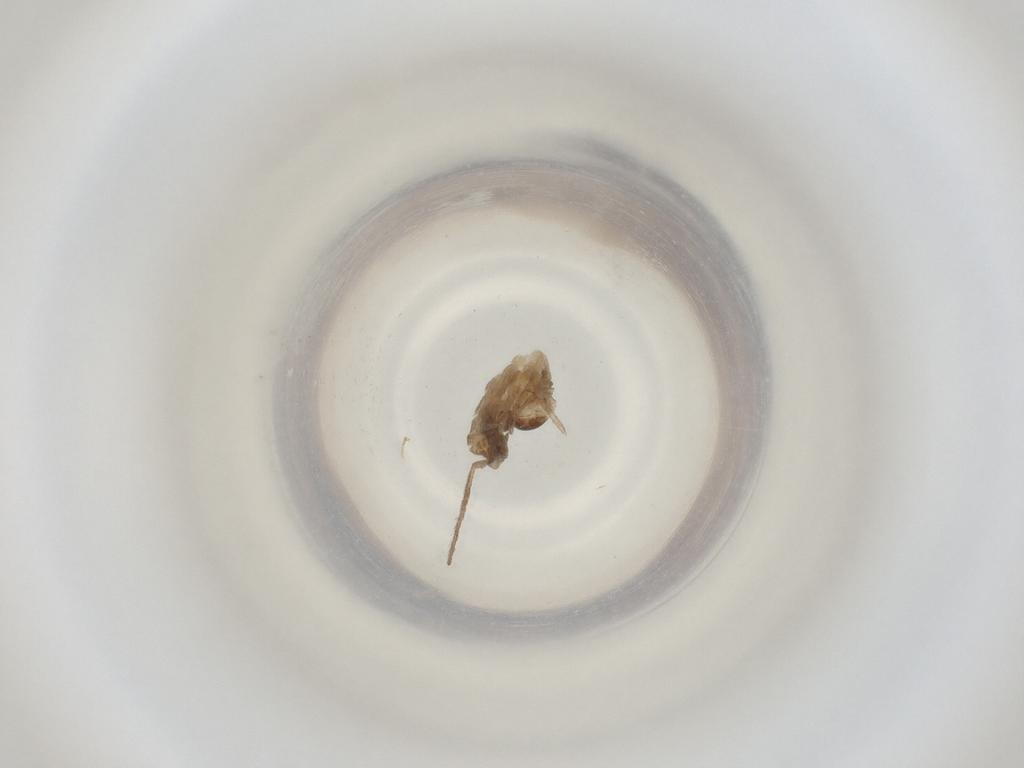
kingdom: Animalia
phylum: Arthropoda
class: Insecta
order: Diptera
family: Cecidomyiidae
